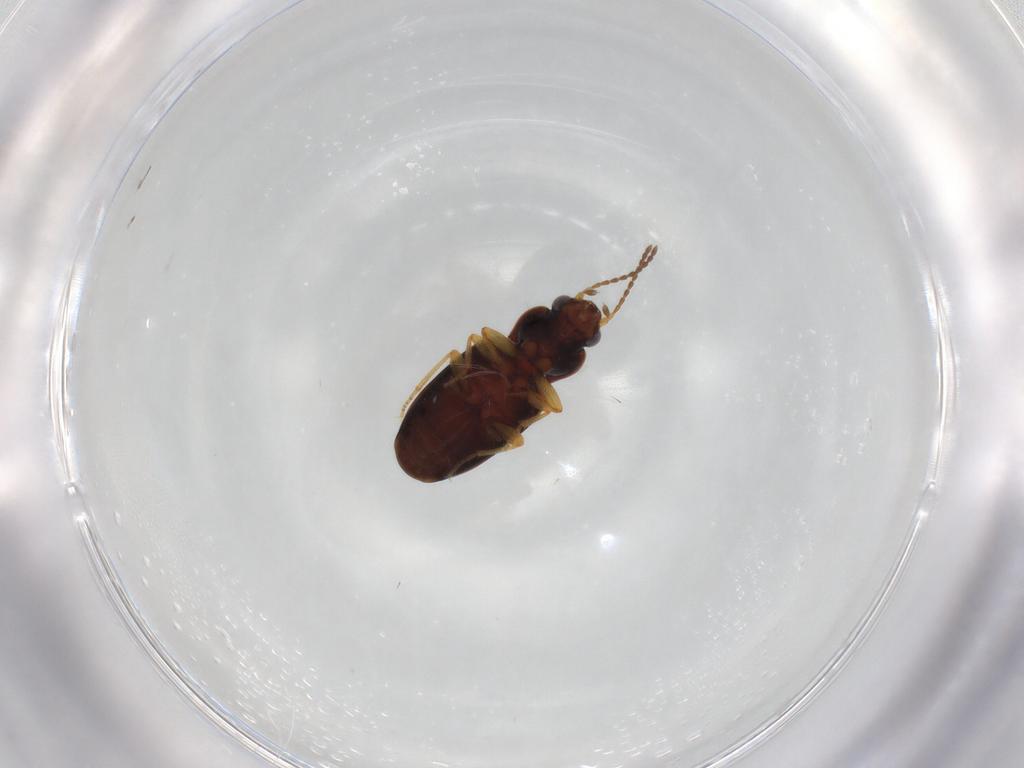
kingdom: Animalia
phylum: Arthropoda
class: Insecta
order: Coleoptera
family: Carabidae
